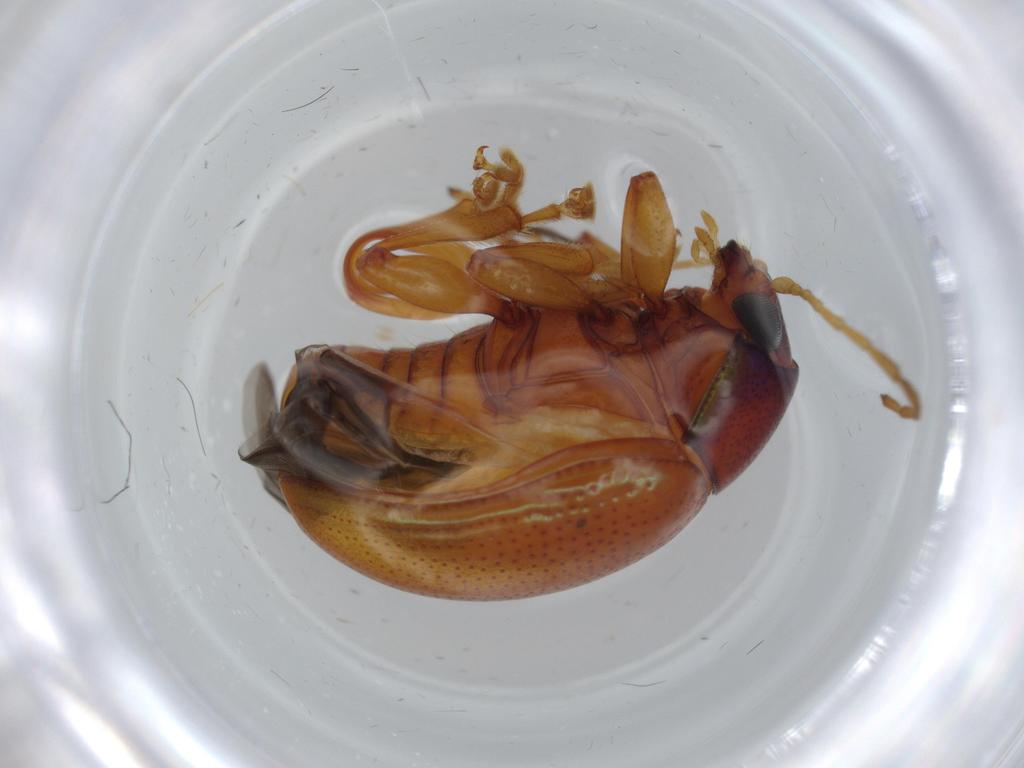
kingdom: Animalia
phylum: Arthropoda
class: Insecta
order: Coleoptera
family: Chrysomelidae
